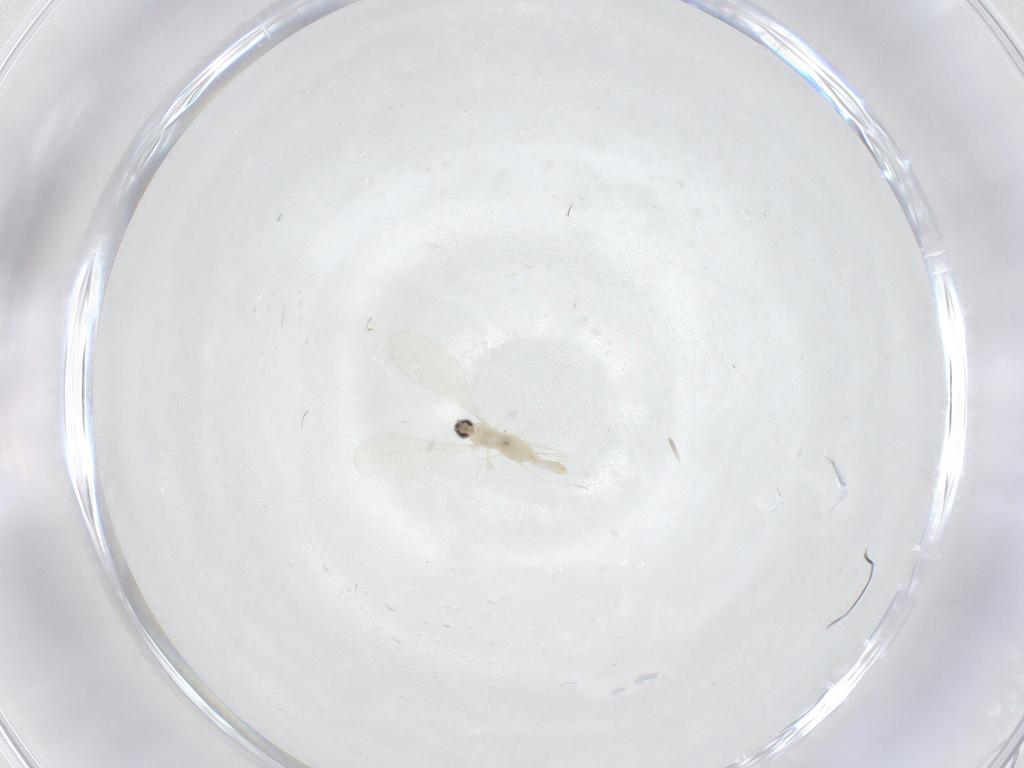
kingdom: Animalia
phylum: Arthropoda
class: Insecta
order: Diptera
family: Cecidomyiidae
